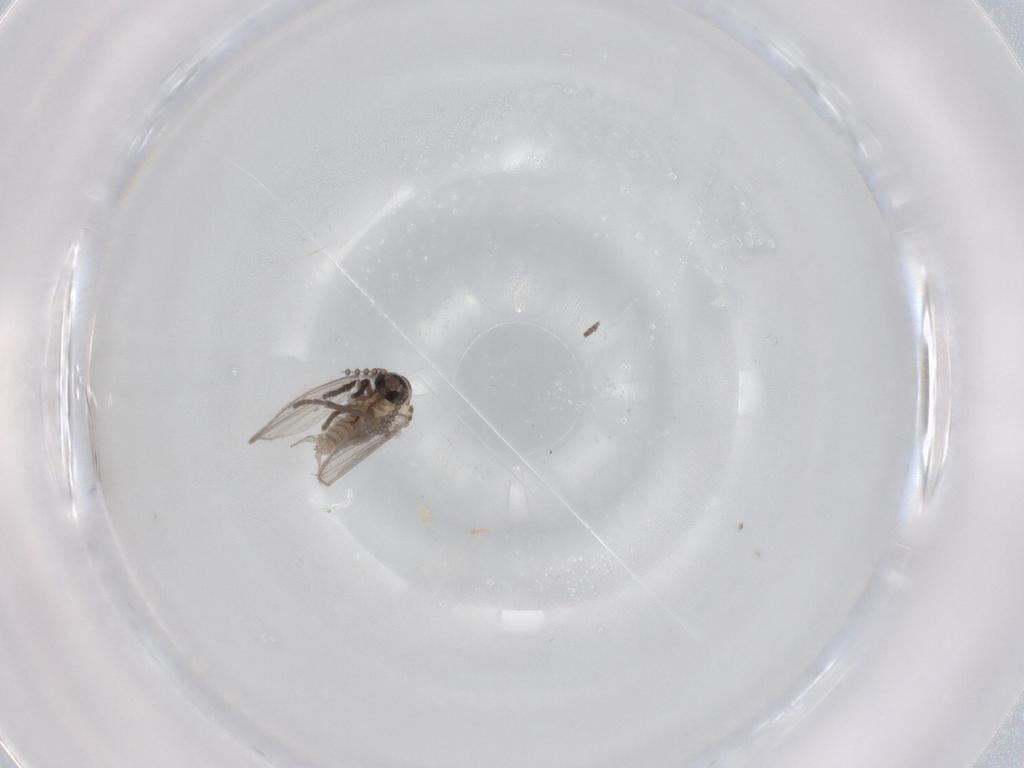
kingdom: Animalia
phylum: Arthropoda
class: Insecta
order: Diptera
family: Psychodidae
